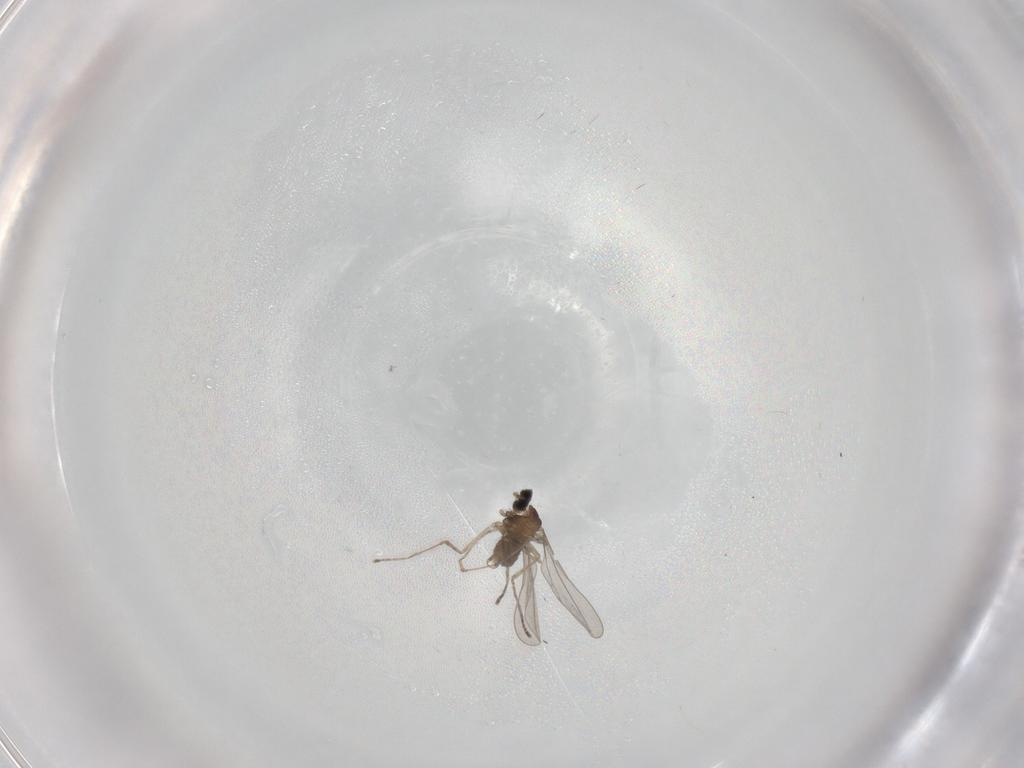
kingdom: Animalia
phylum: Arthropoda
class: Insecta
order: Diptera
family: Cecidomyiidae
